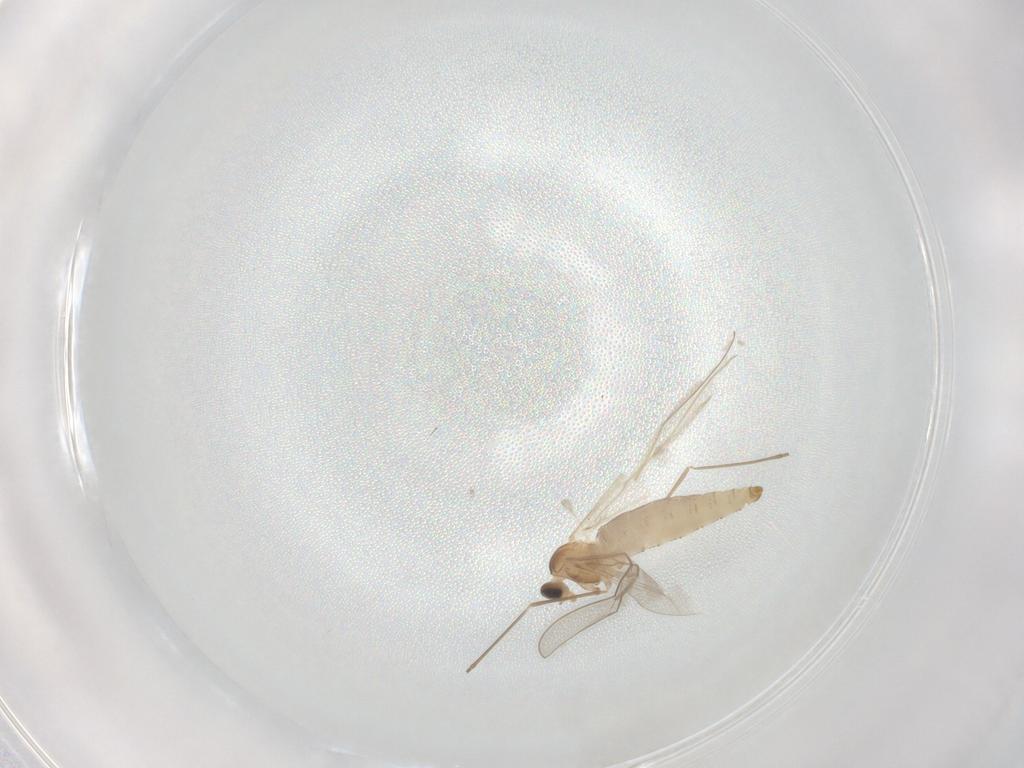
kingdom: Animalia
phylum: Arthropoda
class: Insecta
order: Diptera
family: Cecidomyiidae
